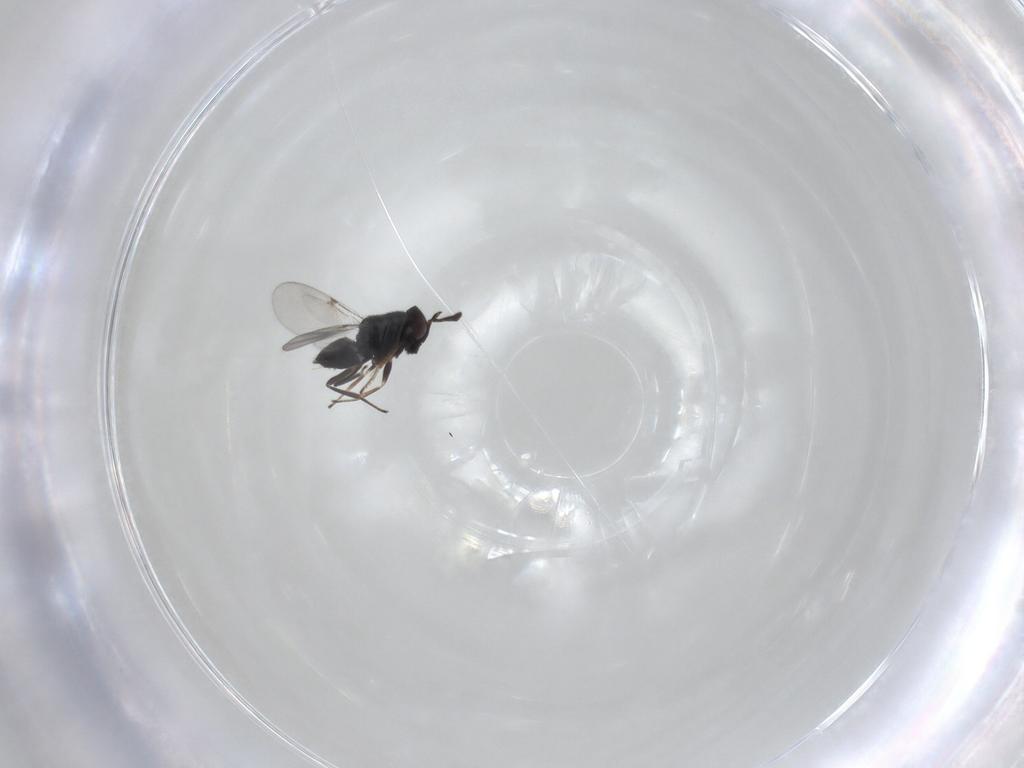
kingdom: Animalia
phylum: Arthropoda
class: Insecta
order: Hymenoptera
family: Encyrtidae
